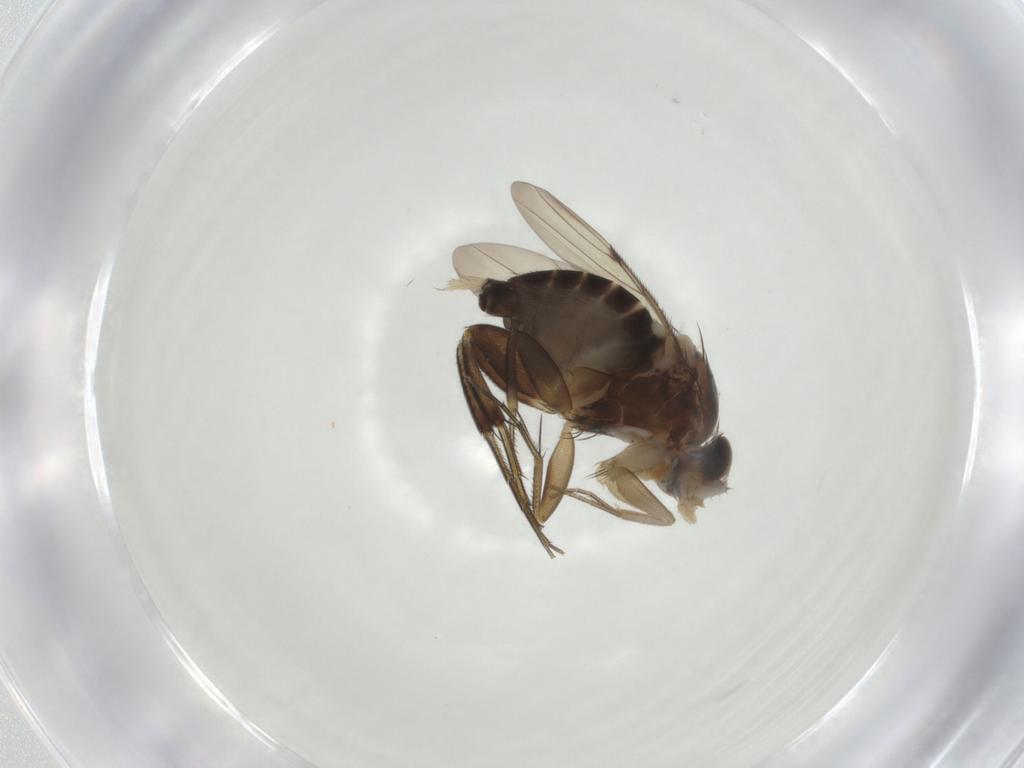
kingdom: Animalia
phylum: Arthropoda
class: Insecta
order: Diptera
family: Phoridae
